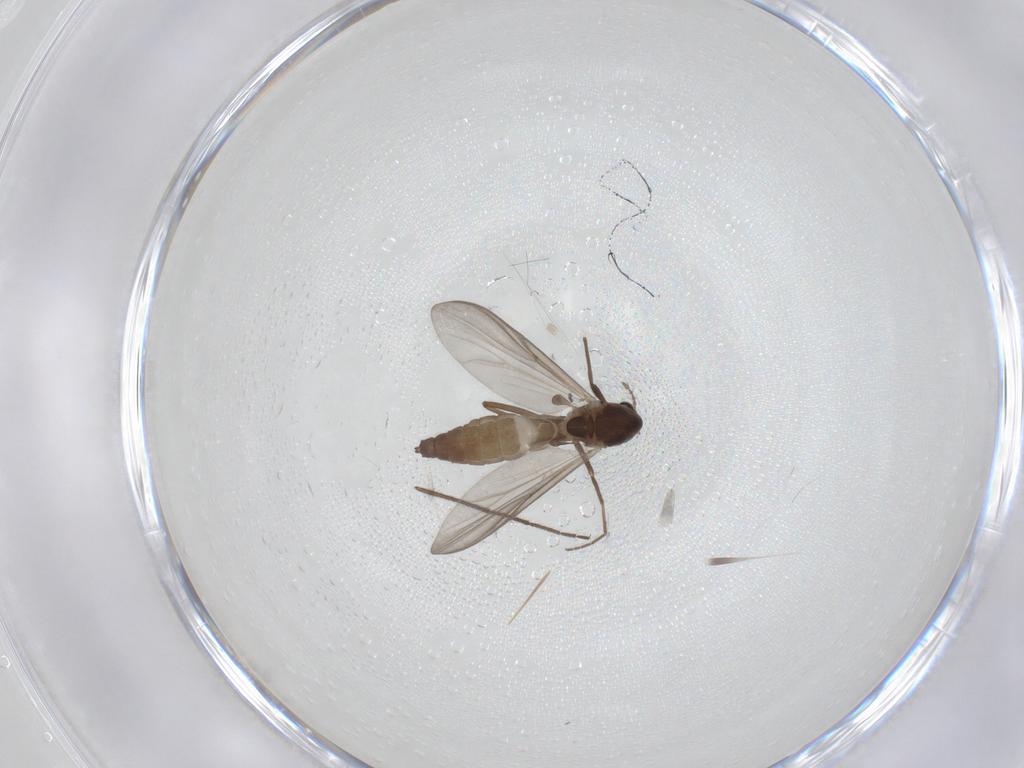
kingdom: Animalia
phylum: Arthropoda
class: Insecta
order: Diptera
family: Chironomidae
